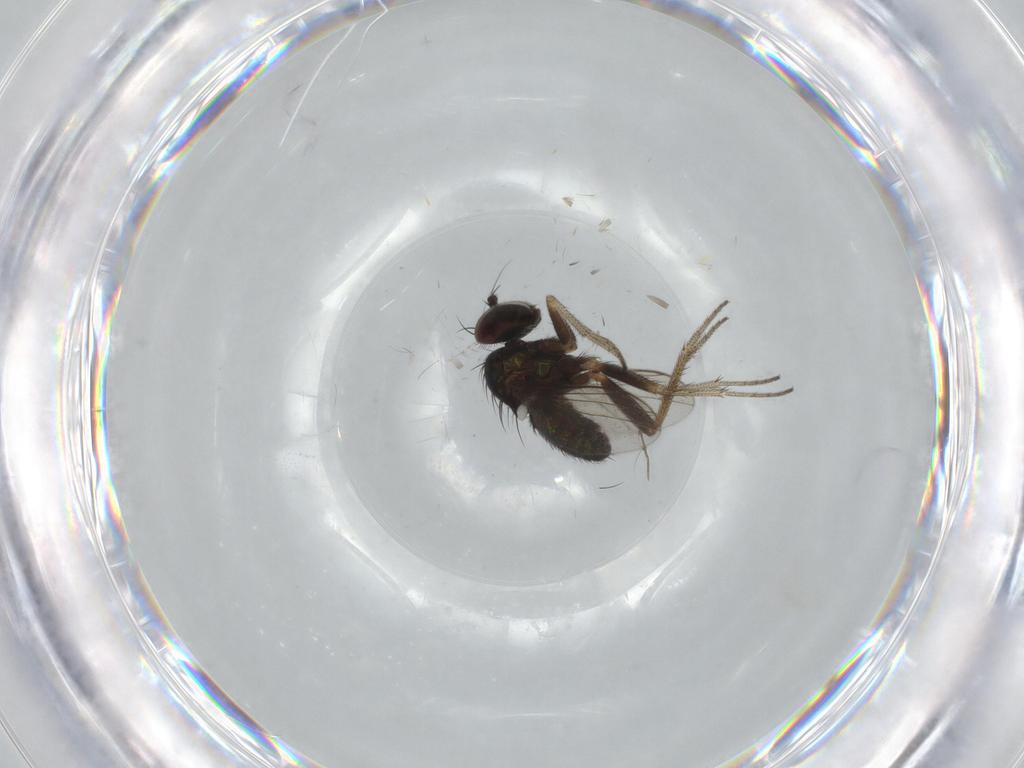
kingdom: Animalia
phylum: Arthropoda
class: Insecta
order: Diptera
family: Dolichopodidae
